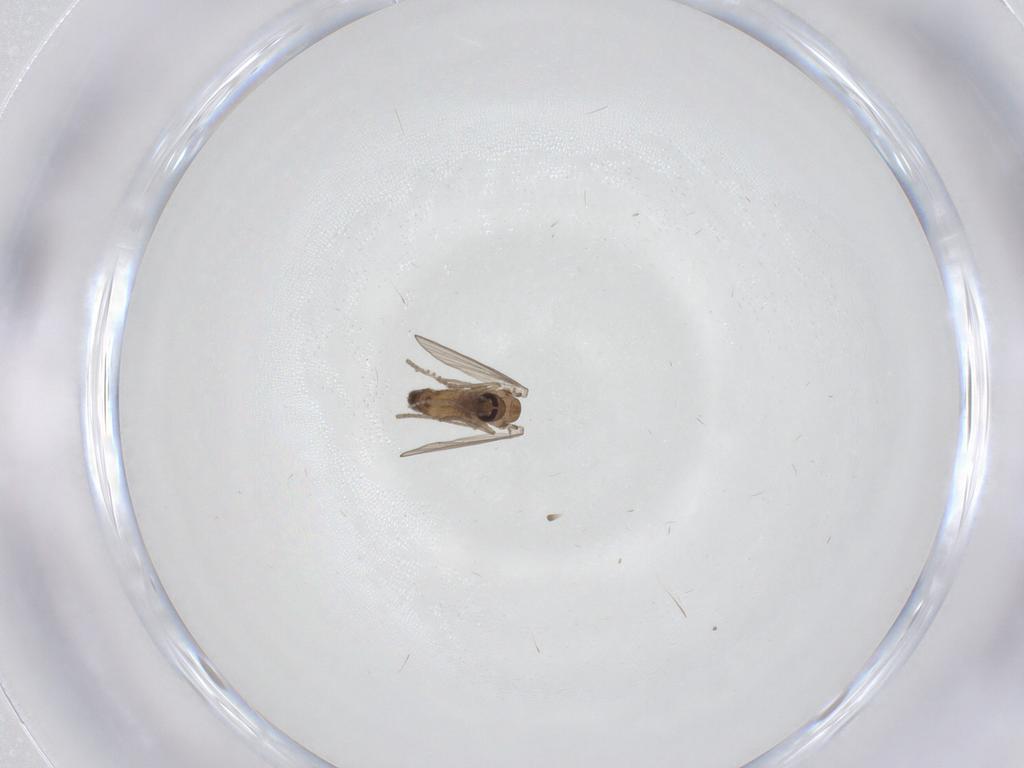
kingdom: Animalia
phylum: Arthropoda
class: Insecta
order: Diptera
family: Psychodidae
